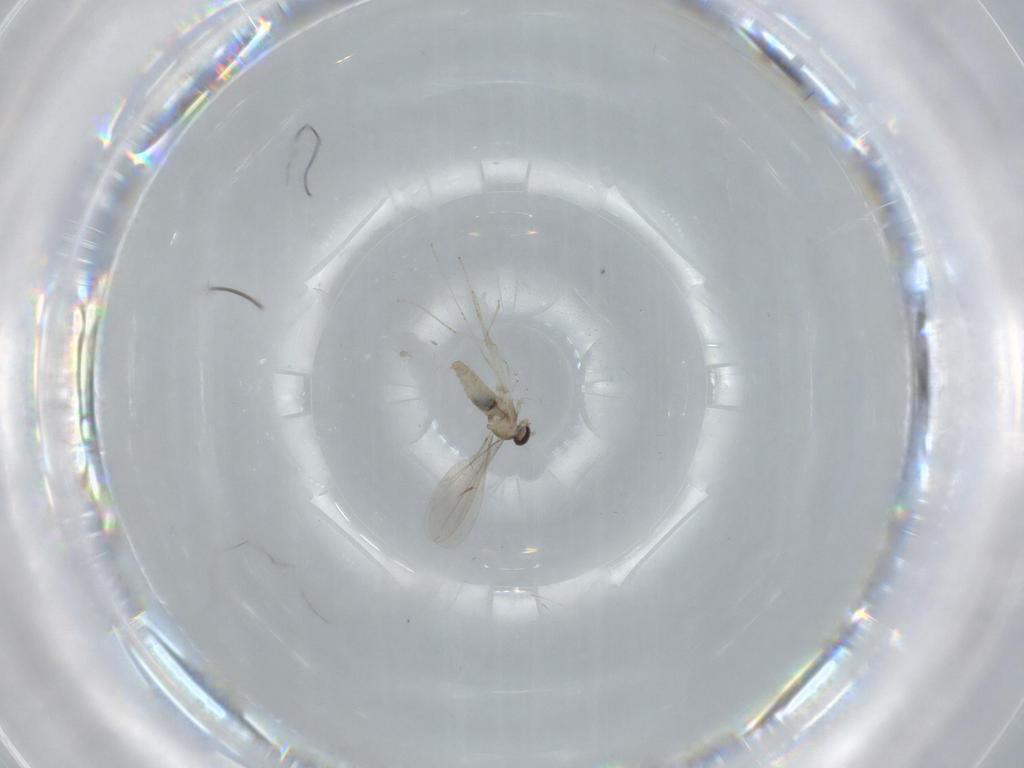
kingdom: Animalia
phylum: Arthropoda
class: Insecta
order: Diptera
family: Cecidomyiidae
